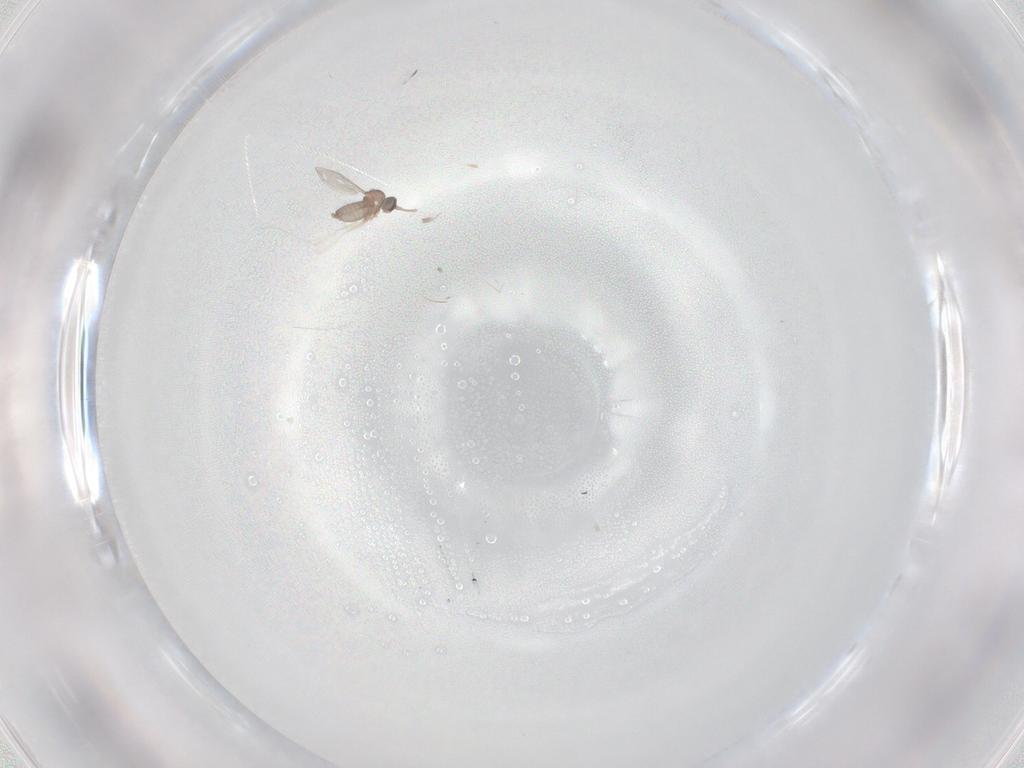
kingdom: Animalia
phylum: Arthropoda
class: Insecta
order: Diptera
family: Cecidomyiidae
